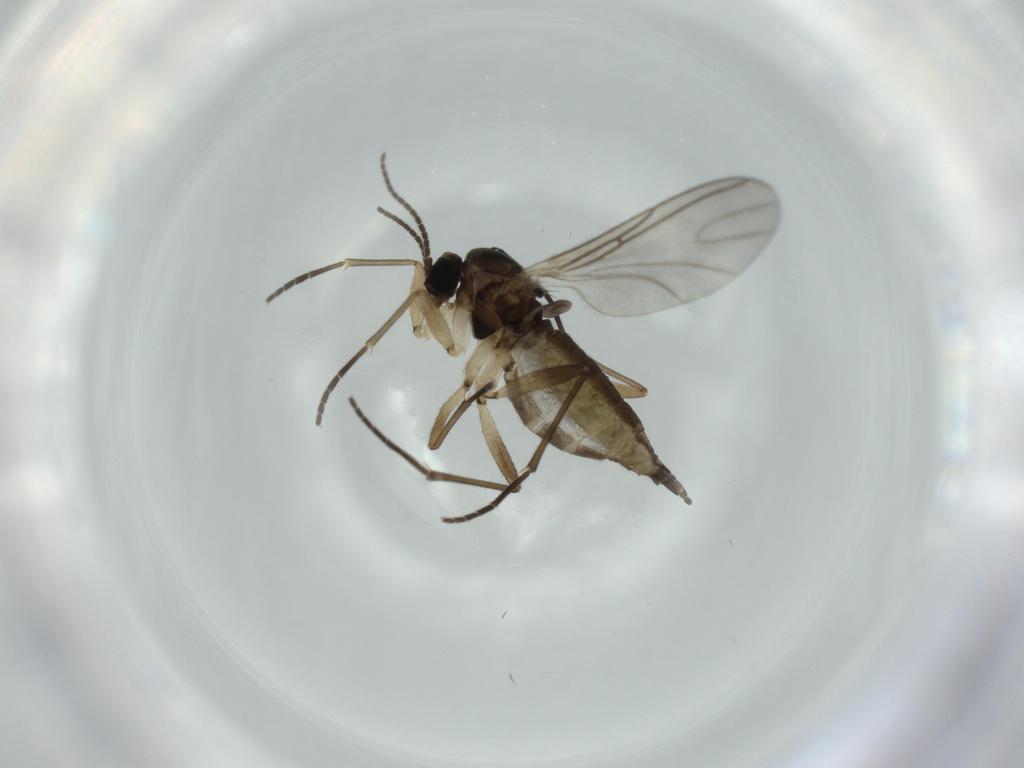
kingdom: Animalia
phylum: Arthropoda
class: Insecta
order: Diptera
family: Sciaridae
